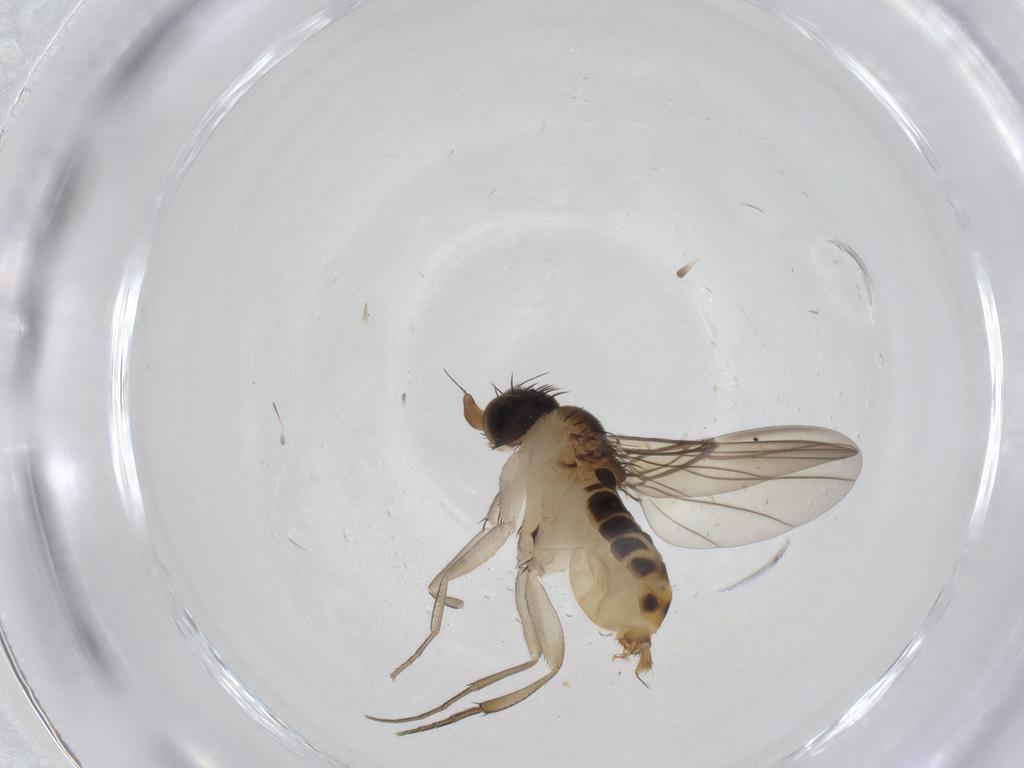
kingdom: Animalia
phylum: Arthropoda
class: Insecta
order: Diptera
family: Phoridae
